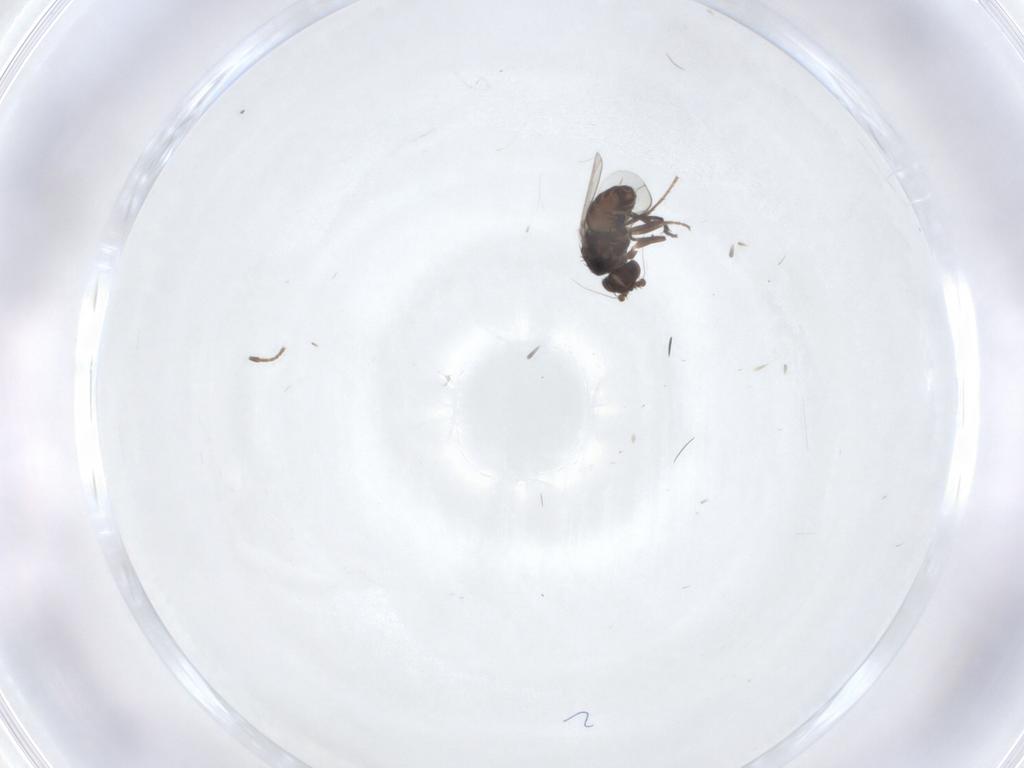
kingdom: Animalia
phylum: Arthropoda
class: Insecta
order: Diptera
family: Sphaeroceridae
